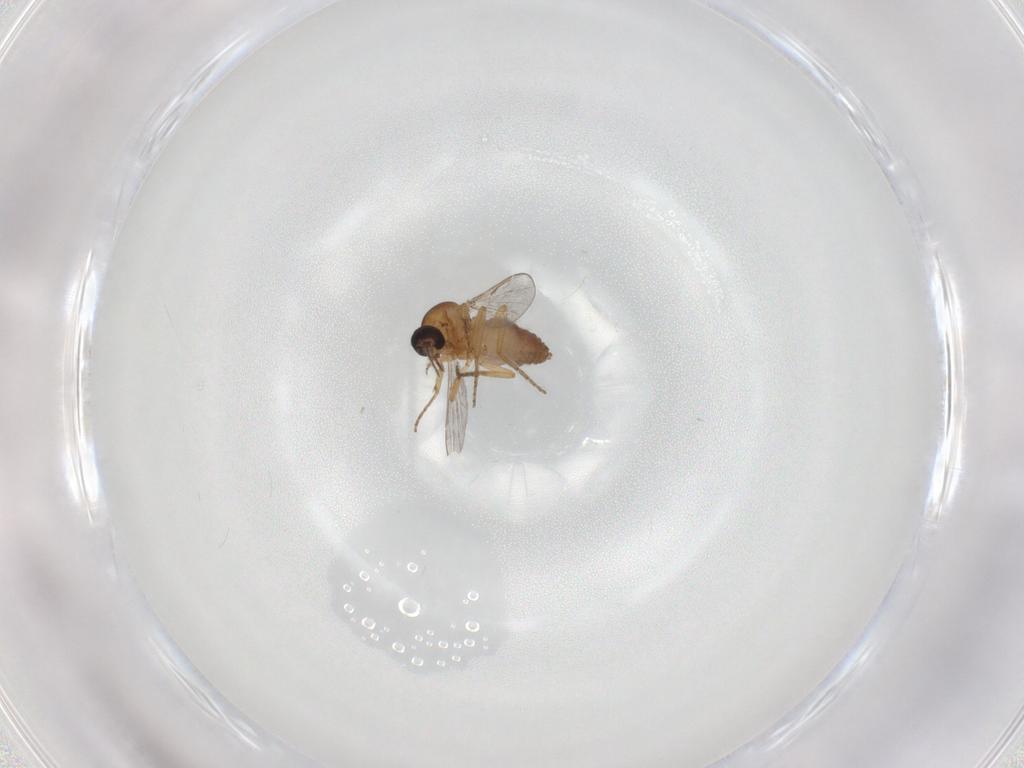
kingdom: Animalia
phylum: Arthropoda
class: Insecta
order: Diptera
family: Ceratopogonidae
